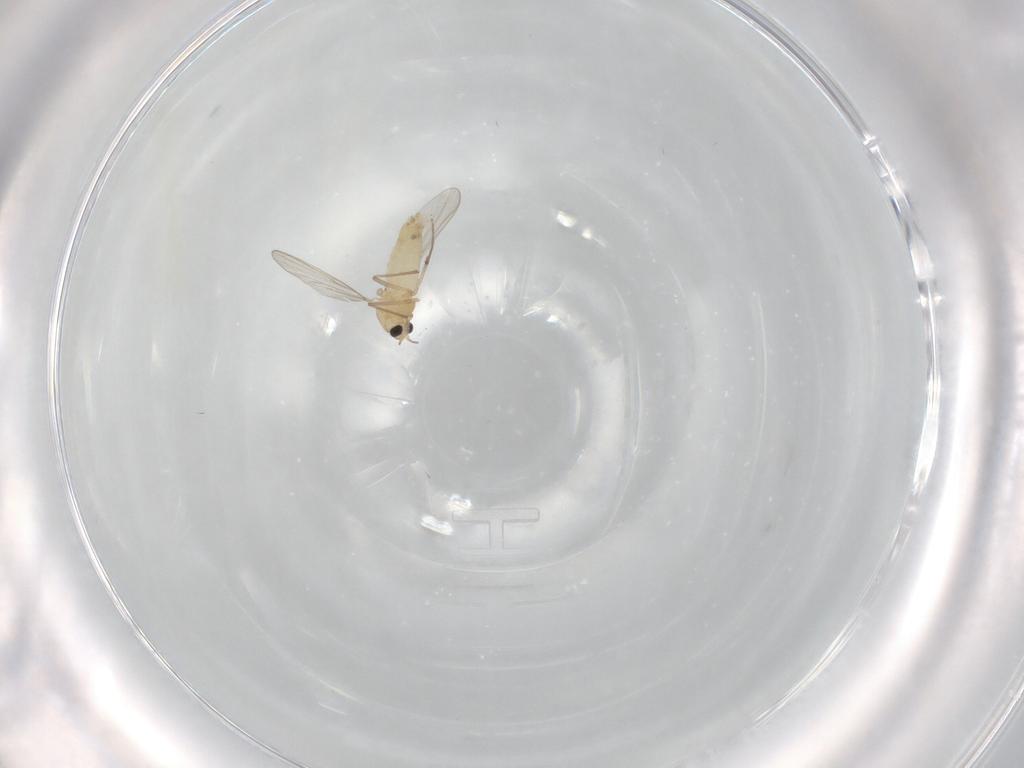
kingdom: Animalia
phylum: Arthropoda
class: Insecta
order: Diptera
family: Chironomidae
